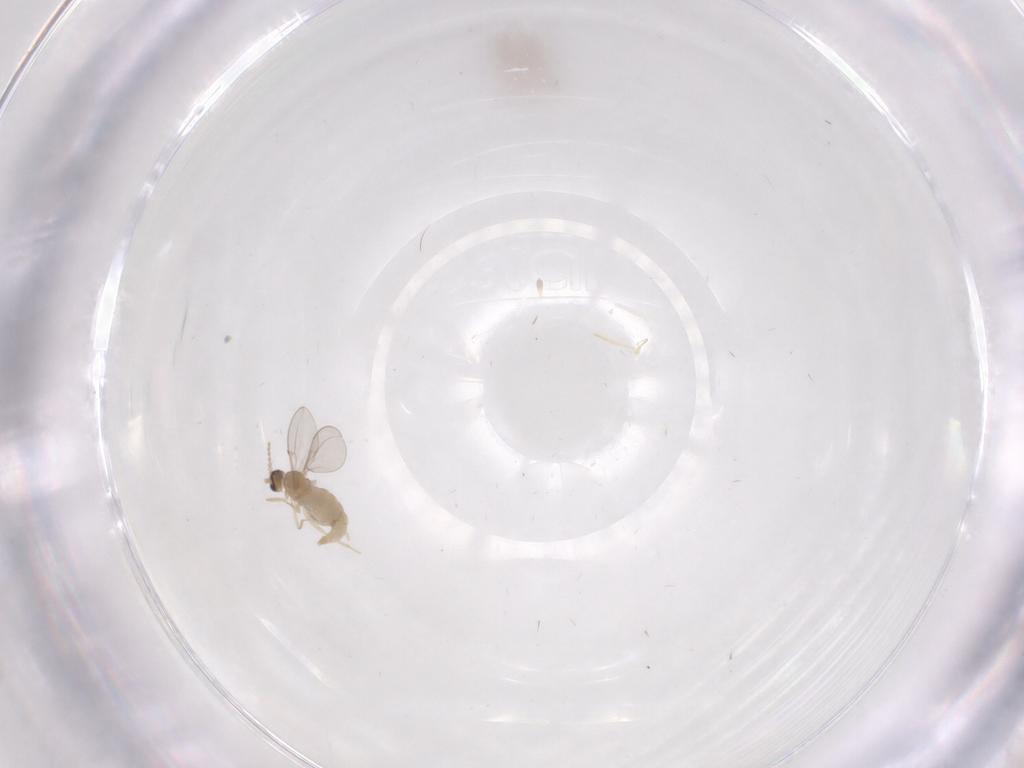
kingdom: Animalia
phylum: Arthropoda
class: Insecta
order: Diptera
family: Cecidomyiidae
